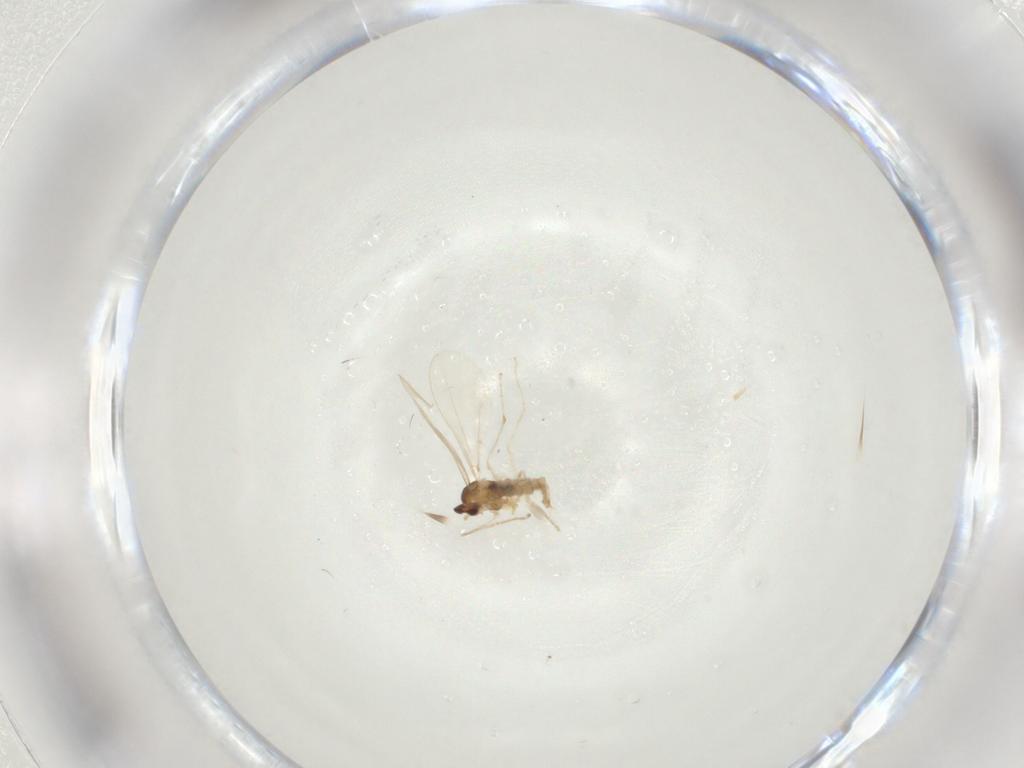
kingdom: Animalia
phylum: Arthropoda
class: Insecta
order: Diptera
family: Cecidomyiidae
